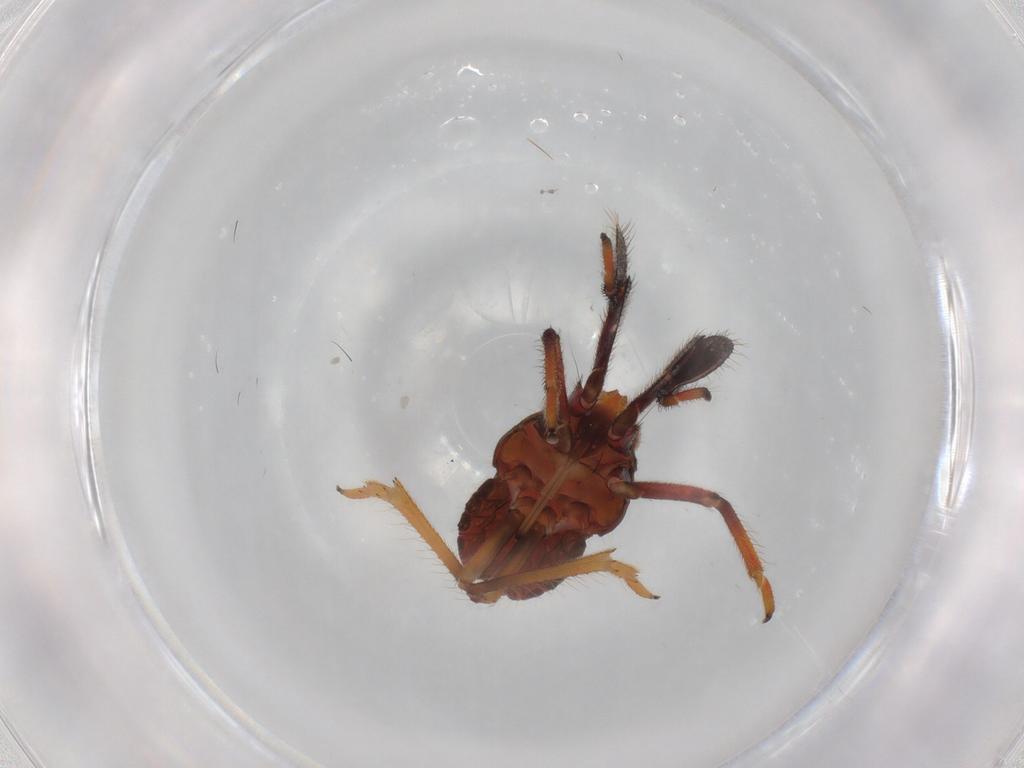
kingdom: Animalia
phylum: Arthropoda
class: Insecta
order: Hemiptera
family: Caliscelidae
